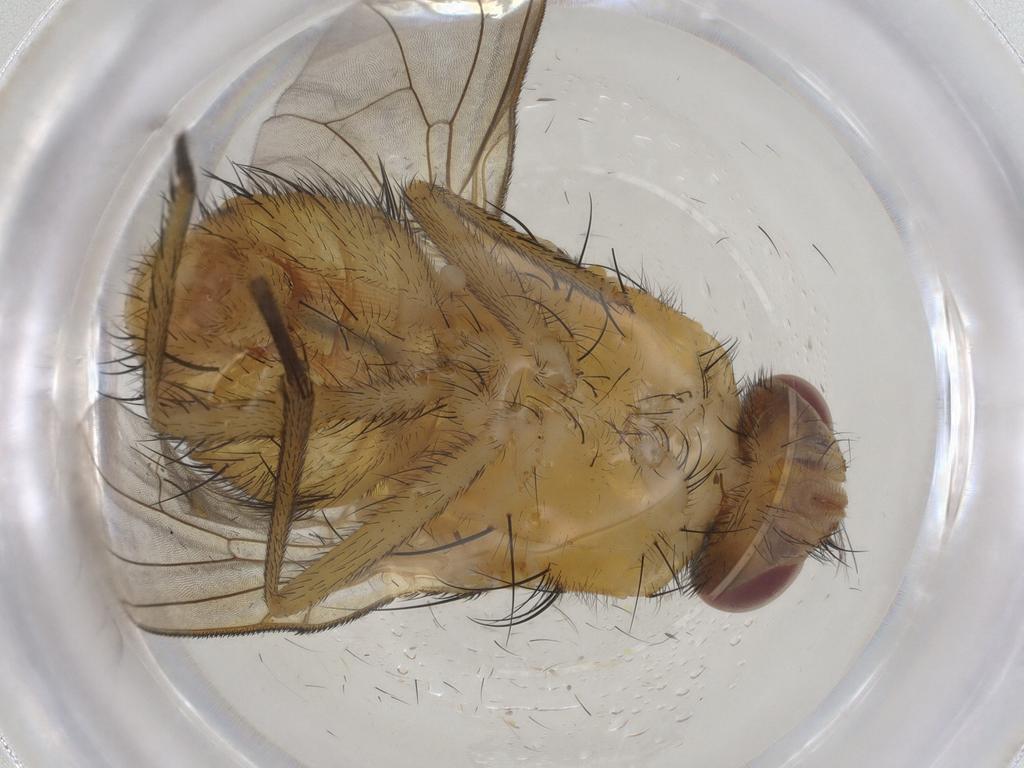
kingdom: Animalia
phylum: Arthropoda
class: Insecta
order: Diptera
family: Muscidae
